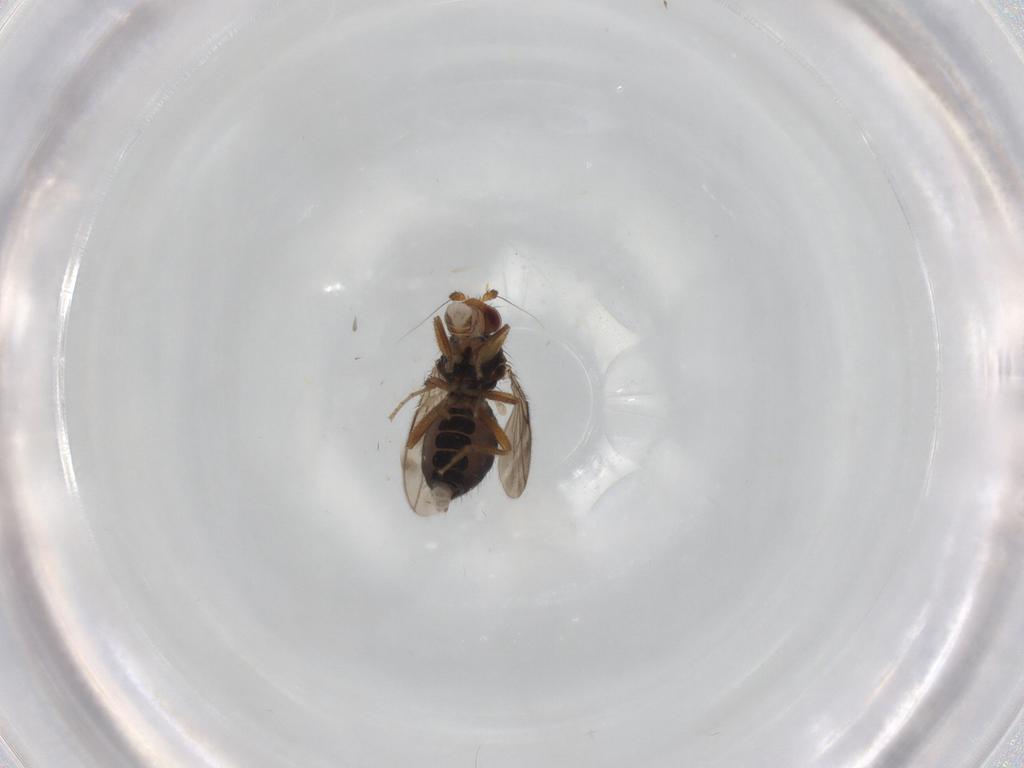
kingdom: Animalia
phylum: Arthropoda
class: Insecta
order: Diptera
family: Sphaeroceridae
